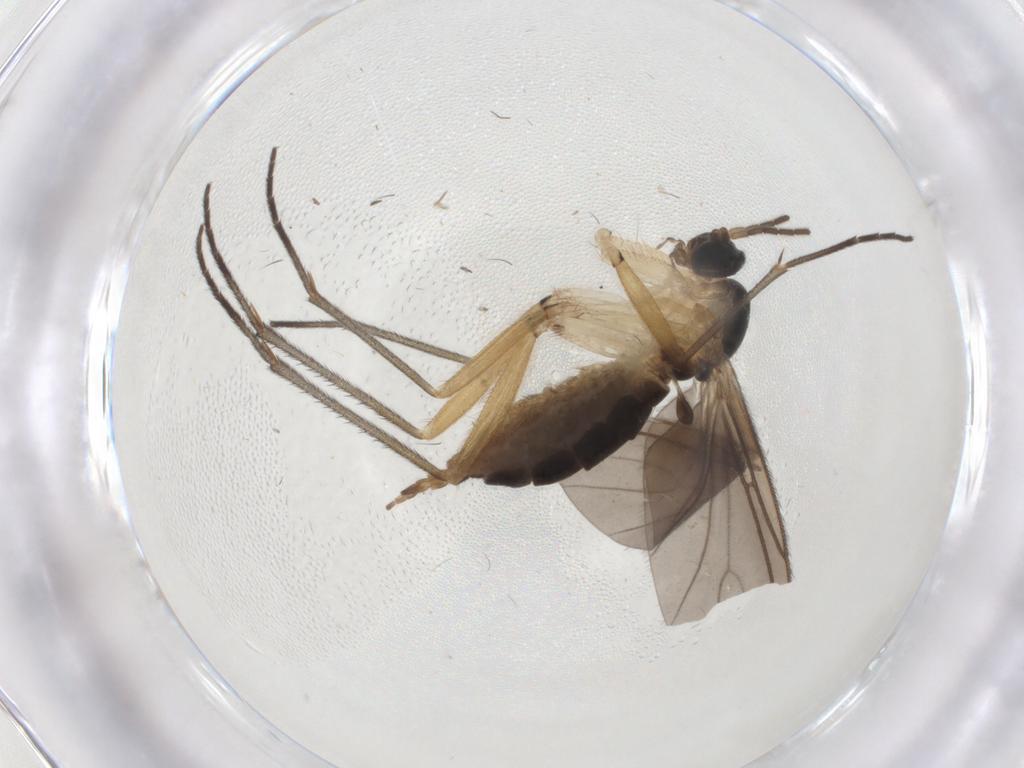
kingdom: Animalia
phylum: Arthropoda
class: Insecta
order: Diptera
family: Sciaridae
